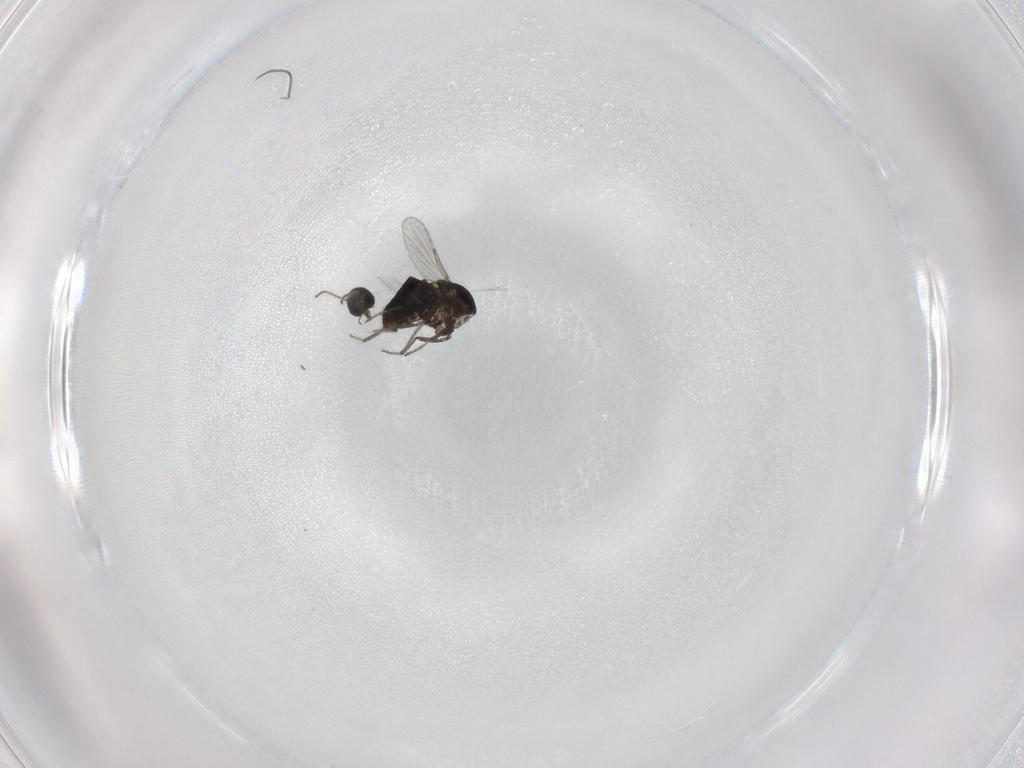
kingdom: Animalia
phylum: Arthropoda
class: Insecta
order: Diptera
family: Ceratopogonidae
